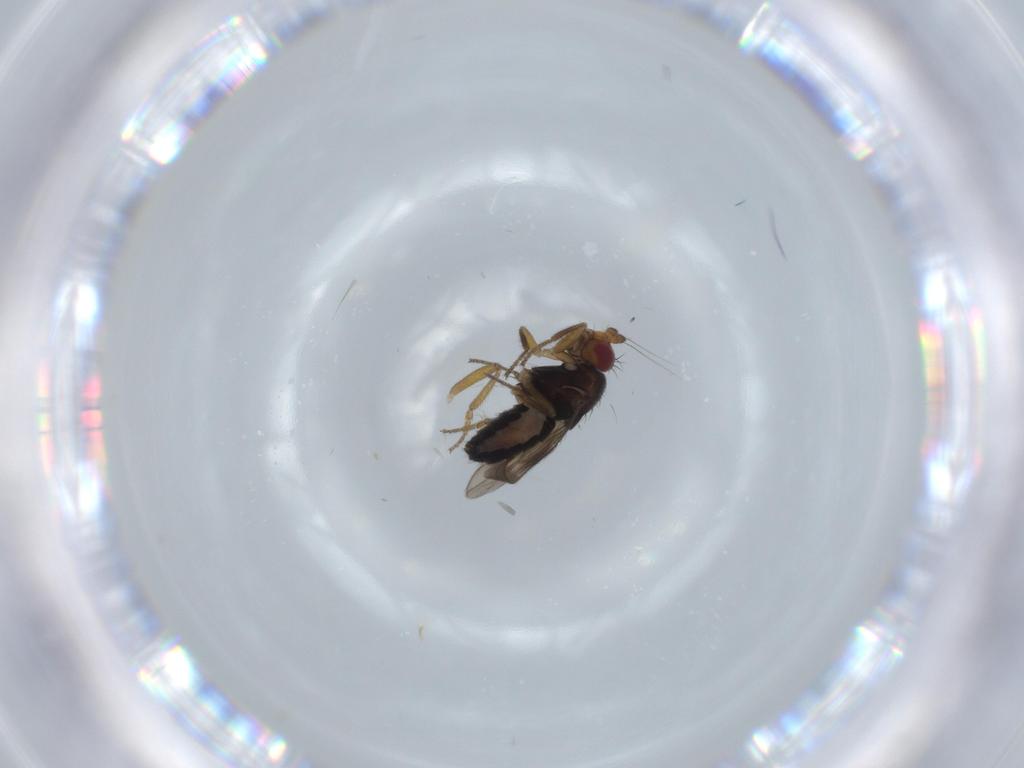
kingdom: Animalia
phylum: Arthropoda
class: Insecta
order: Diptera
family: Sphaeroceridae
